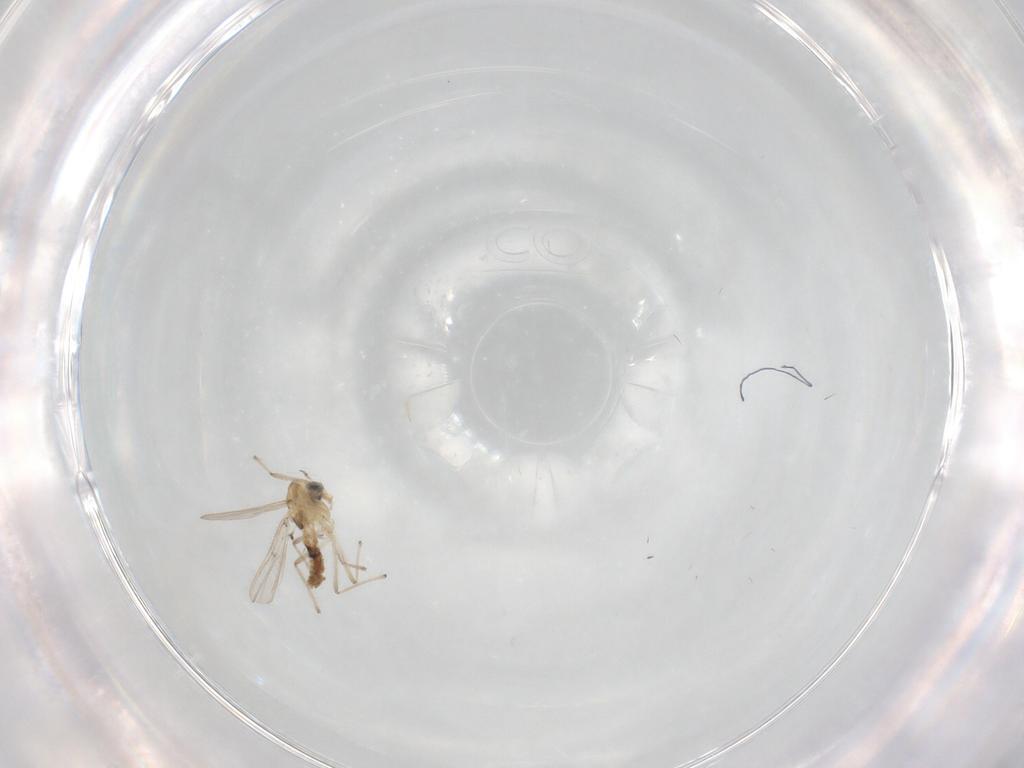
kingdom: Animalia
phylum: Arthropoda
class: Insecta
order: Diptera
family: Chironomidae
